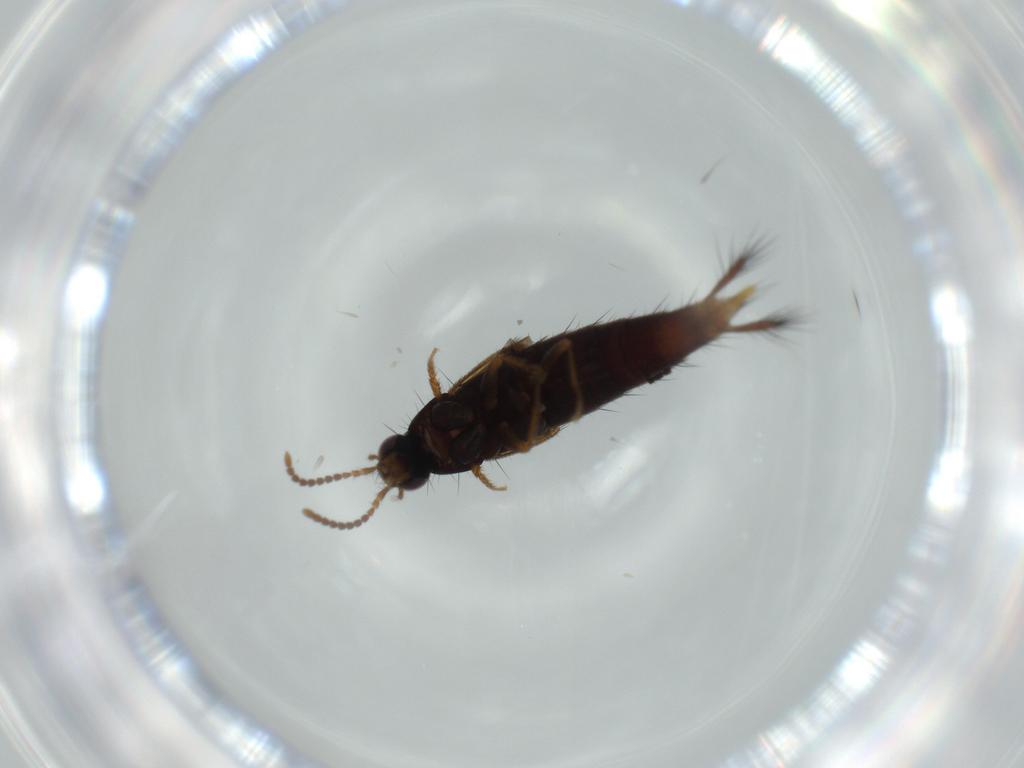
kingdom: Animalia
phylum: Arthropoda
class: Insecta
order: Coleoptera
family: Staphylinidae
